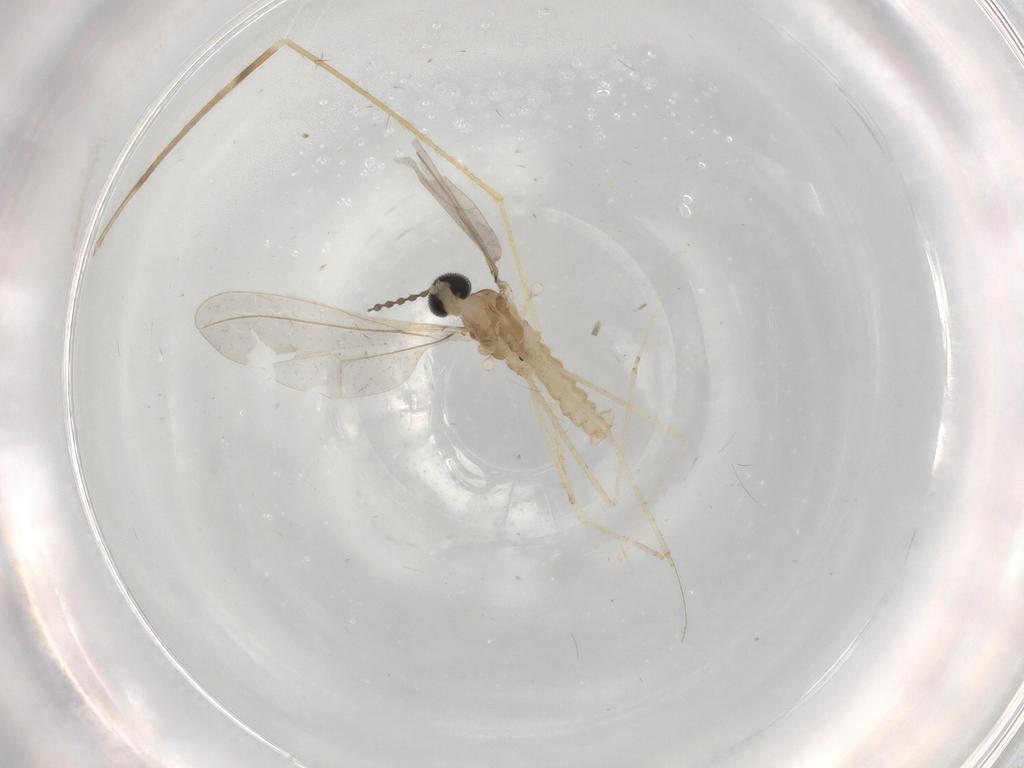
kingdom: Animalia
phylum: Arthropoda
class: Insecta
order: Diptera
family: Cecidomyiidae
